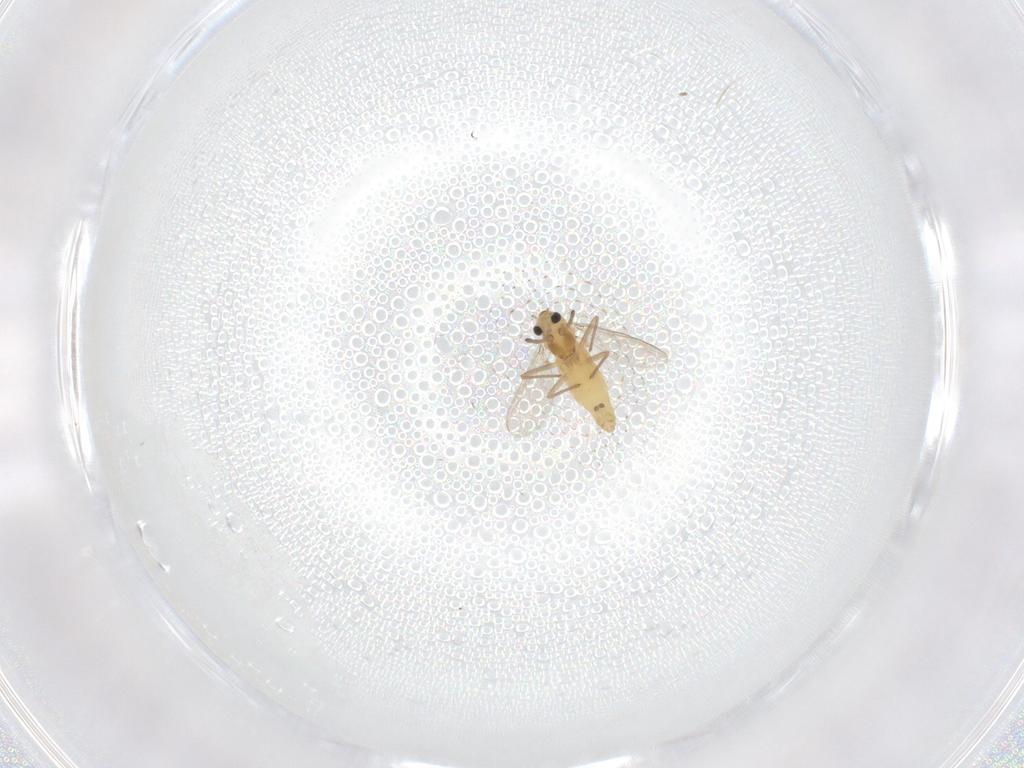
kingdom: Animalia
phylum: Arthropoda
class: Insecta
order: Diptera
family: Chironomidae
